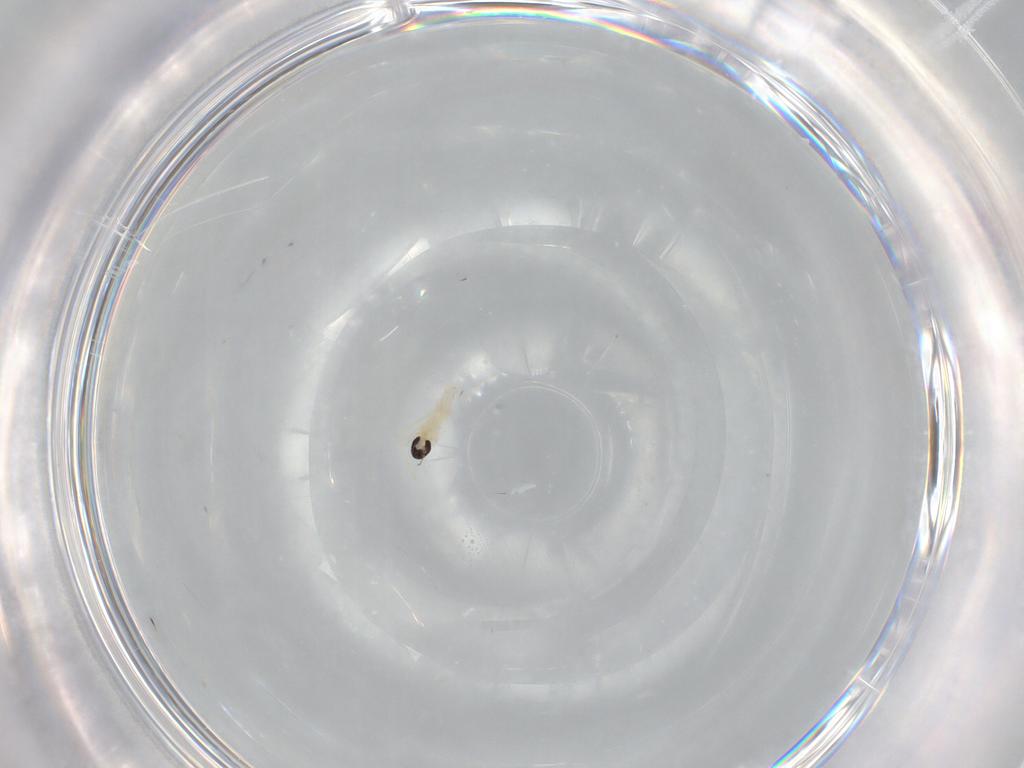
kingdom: Animalia
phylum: Arthropoda
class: Insecta
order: Diptera
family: Cecidomyiidae
